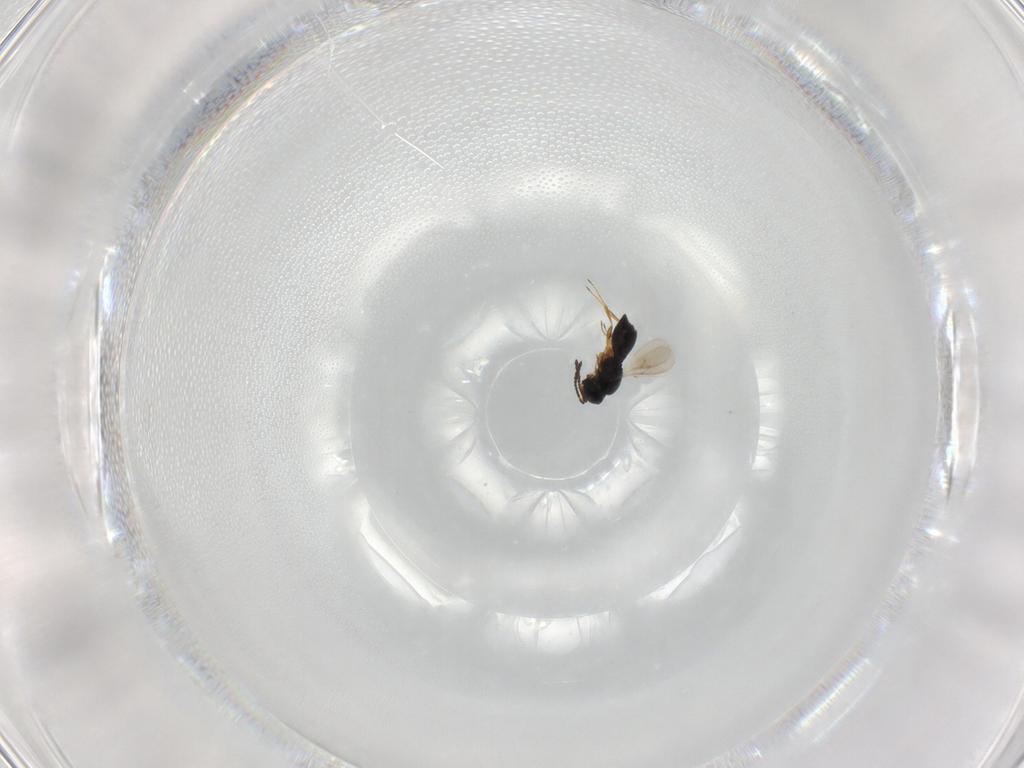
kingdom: Animalia
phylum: Arthropoda
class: Insecta
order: Hymenoptera
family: Scelionidae
